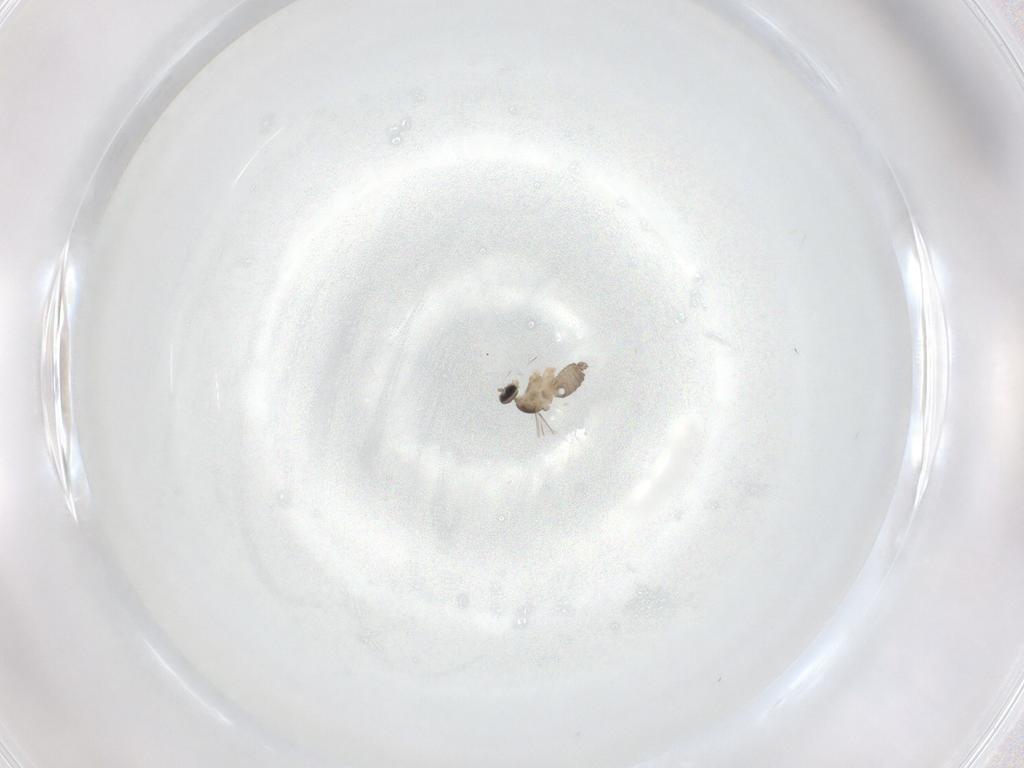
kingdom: Animalia
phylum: Arthropoda
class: Insecta
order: Diptera
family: Cecidomyiidae
